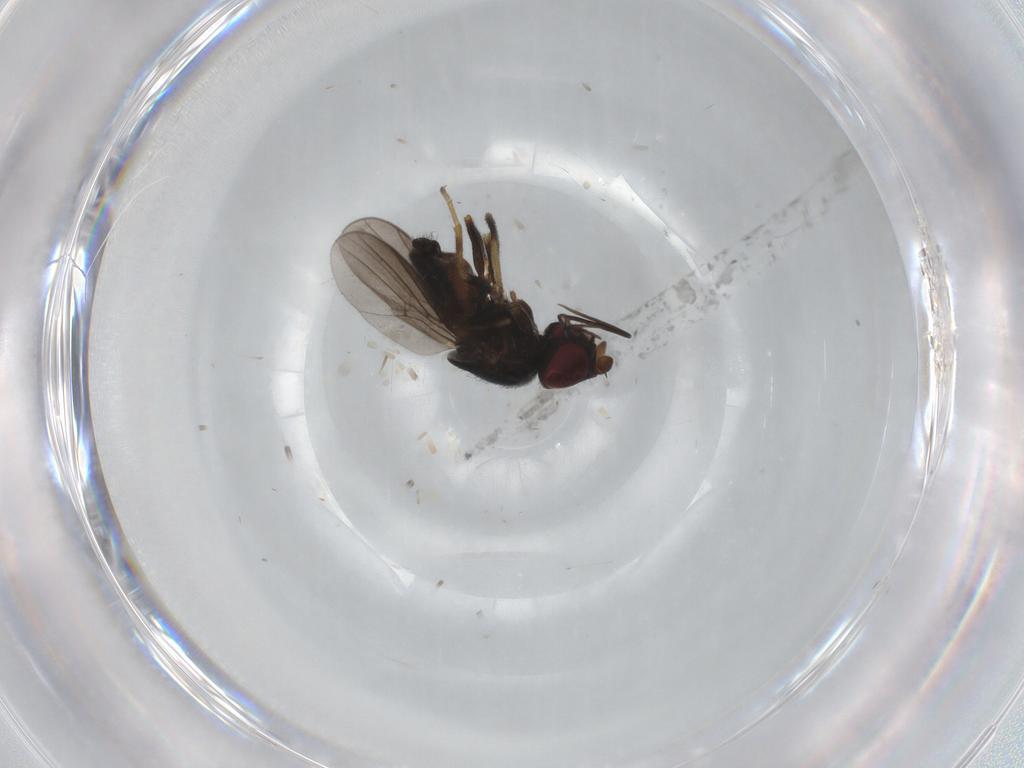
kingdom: Animalia
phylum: Arthropoda
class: Insecta
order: Diptera
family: Chloropidae
